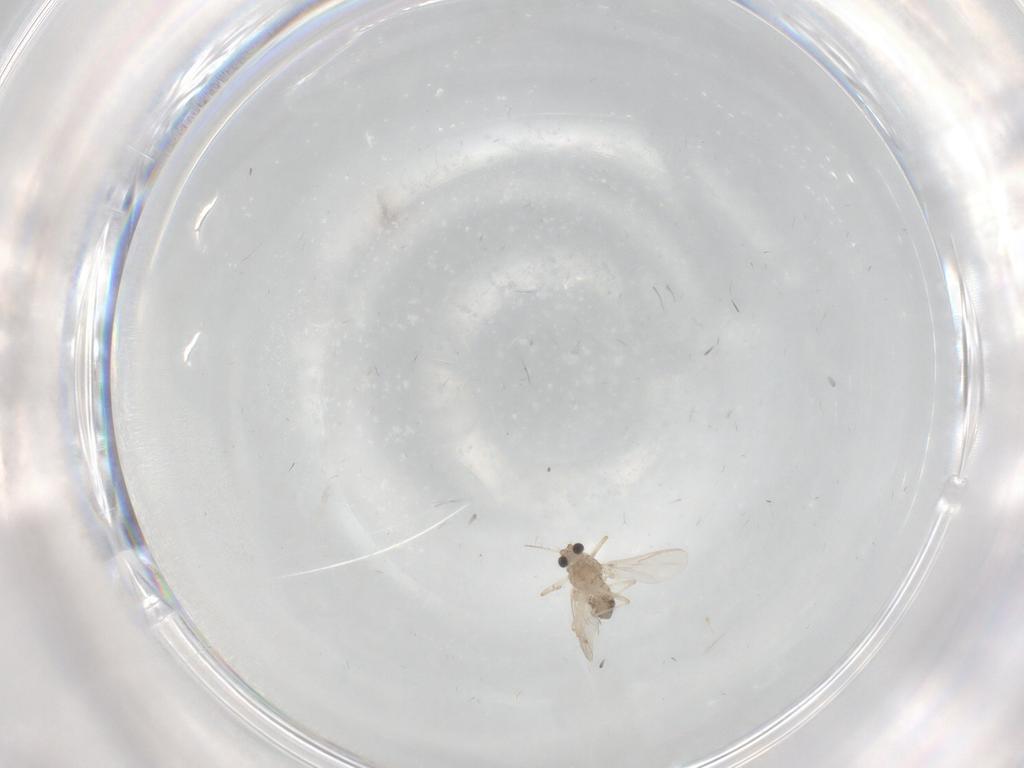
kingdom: Animalia
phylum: Arthropoda
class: Insecta
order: Diptera
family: Chironomidae
